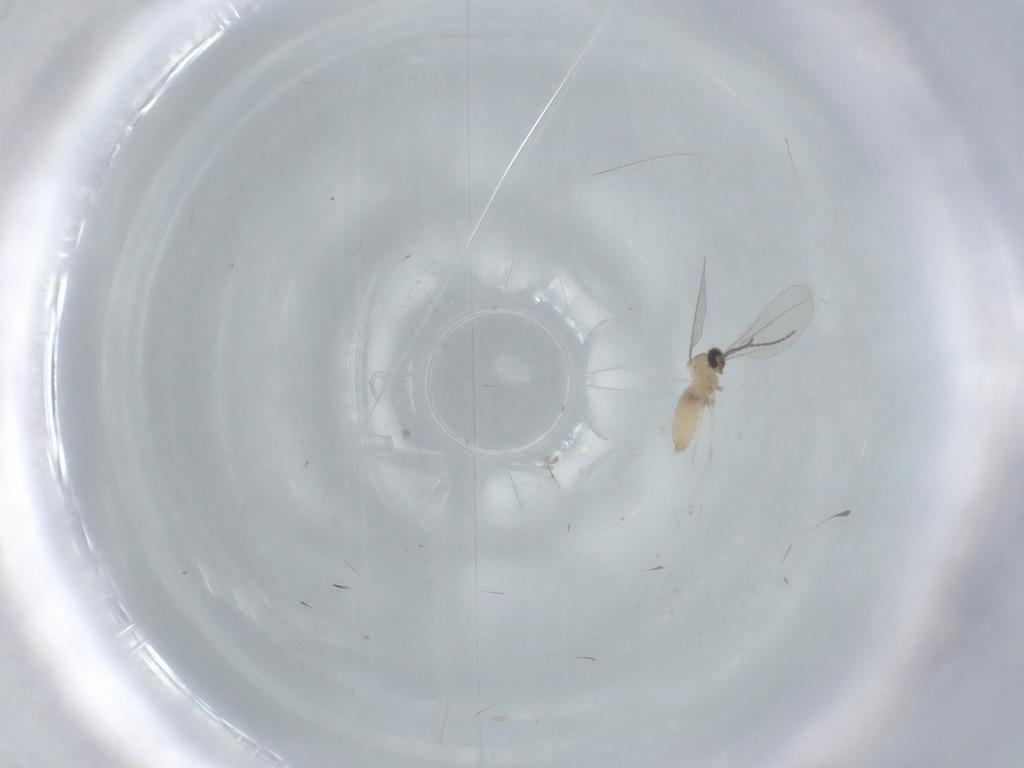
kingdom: Animalia
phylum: Arthropoda
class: Insecta
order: Diptera
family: Cecidomyiidae
